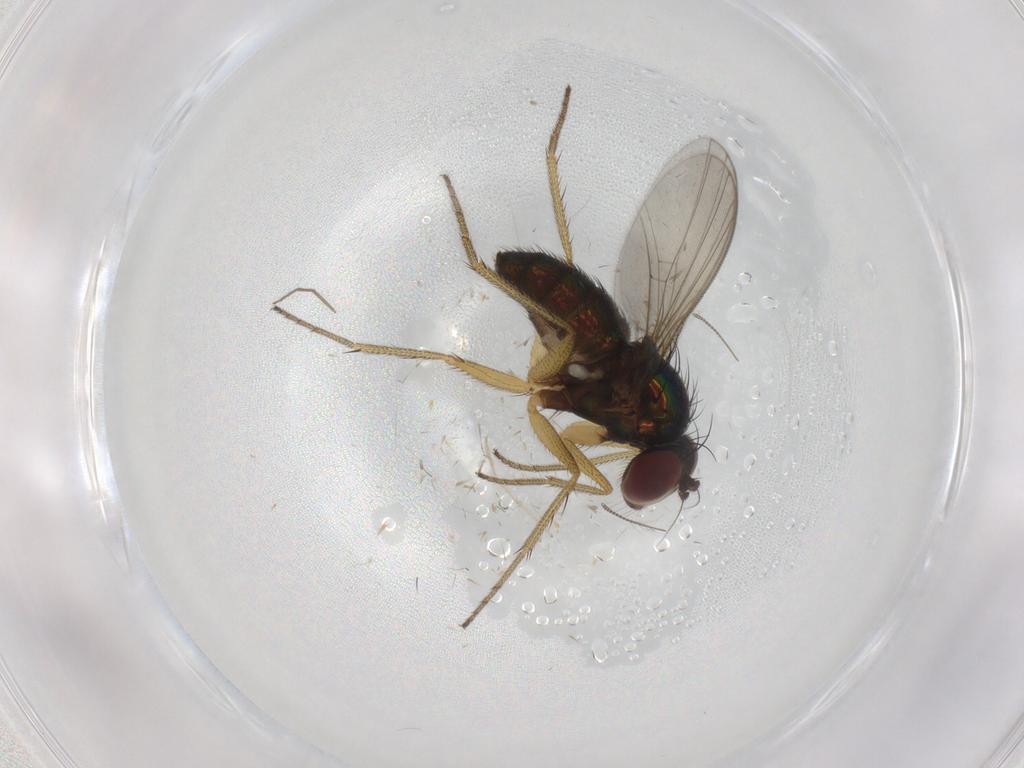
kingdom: Animalia
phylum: Arthropoda
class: Insecta
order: Diptera
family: Dolichopodidae
